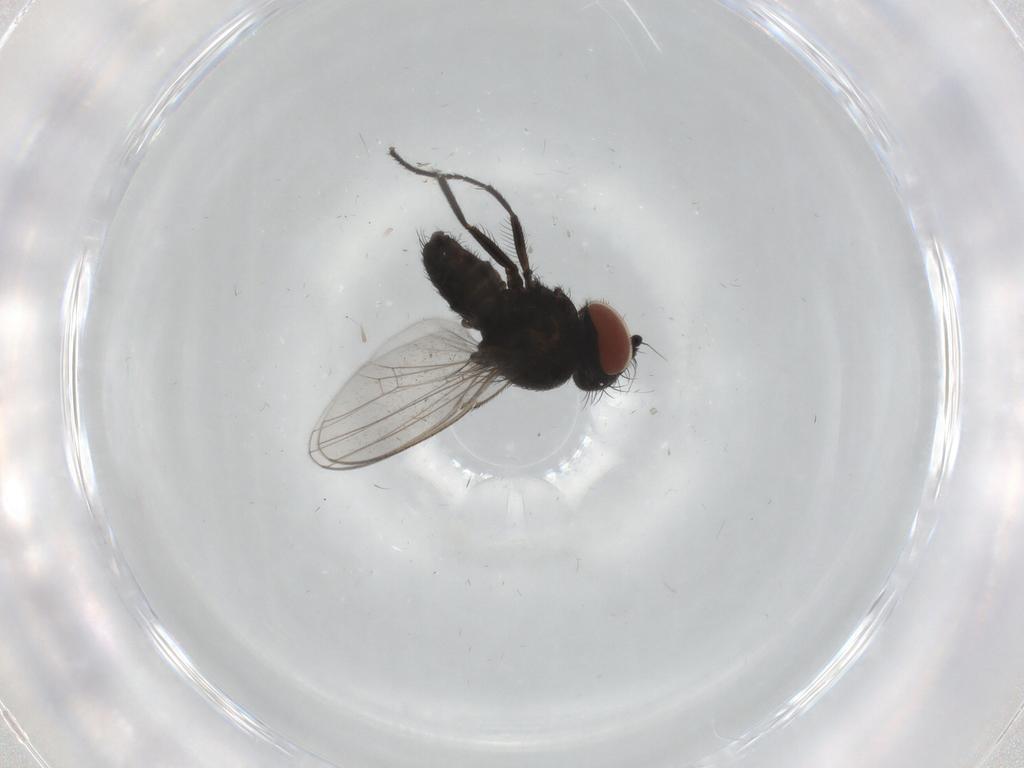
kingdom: Animalia
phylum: Arthropoda
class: Insecta
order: Diptera
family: Milichiidae
